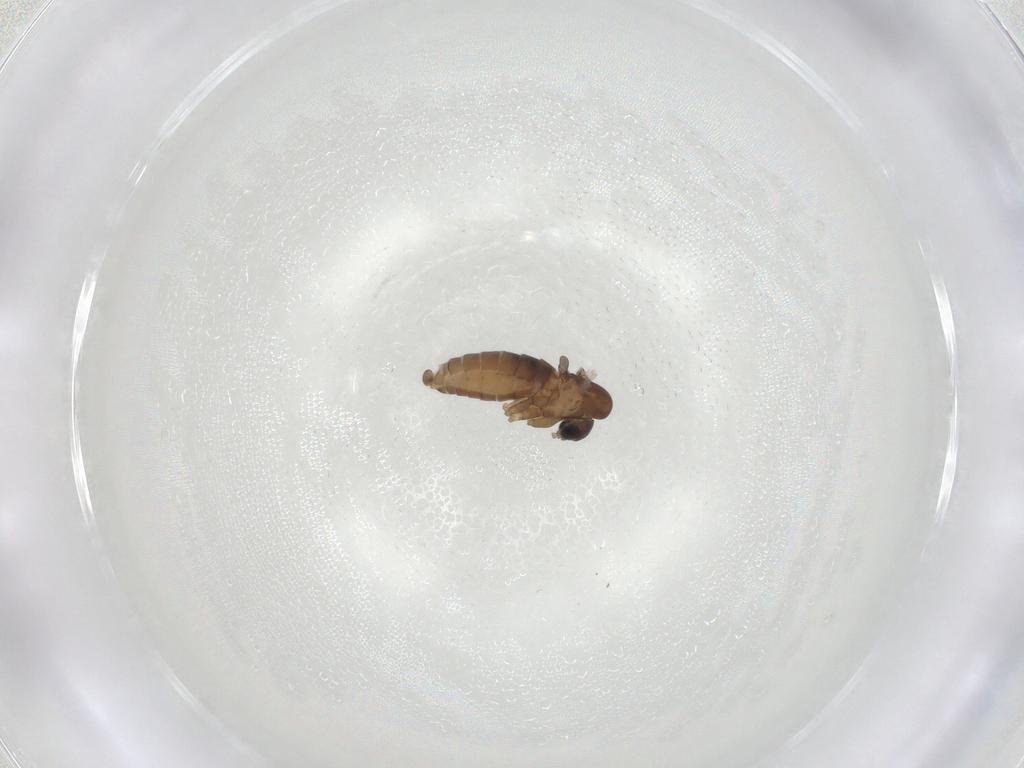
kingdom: Animalia
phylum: Arthropoda
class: Insecta
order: Diptera
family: Psychodidae
